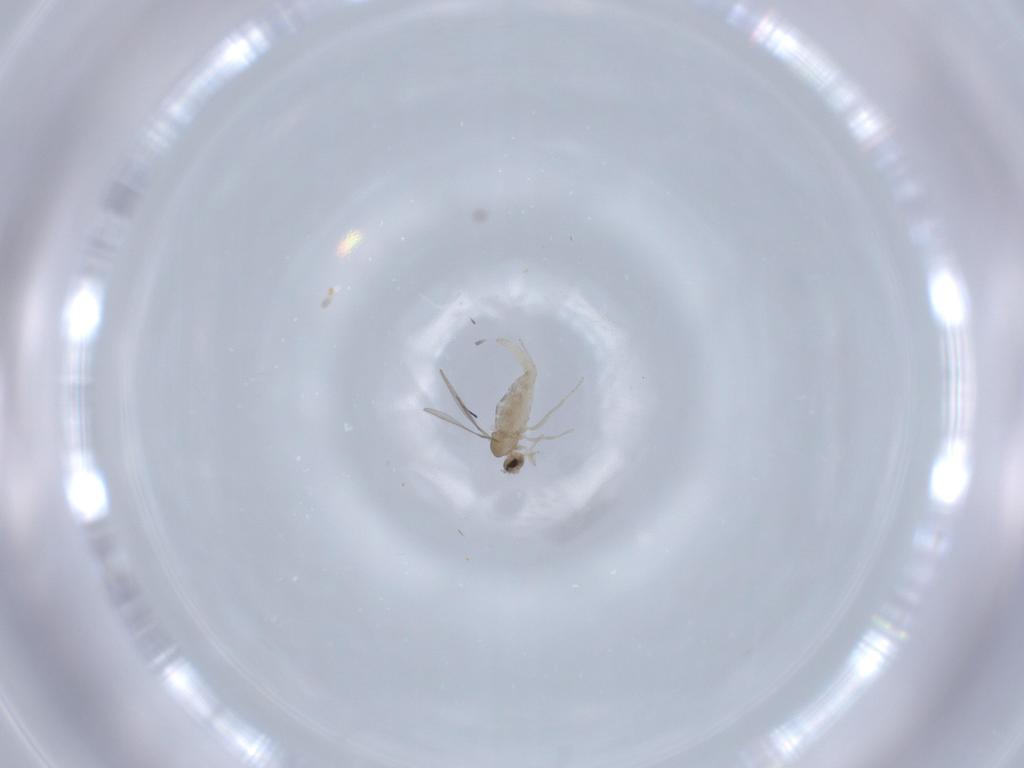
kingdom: Animalia
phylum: Arthropoda
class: Insecta
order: Diptera
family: Cecidomyiidae
